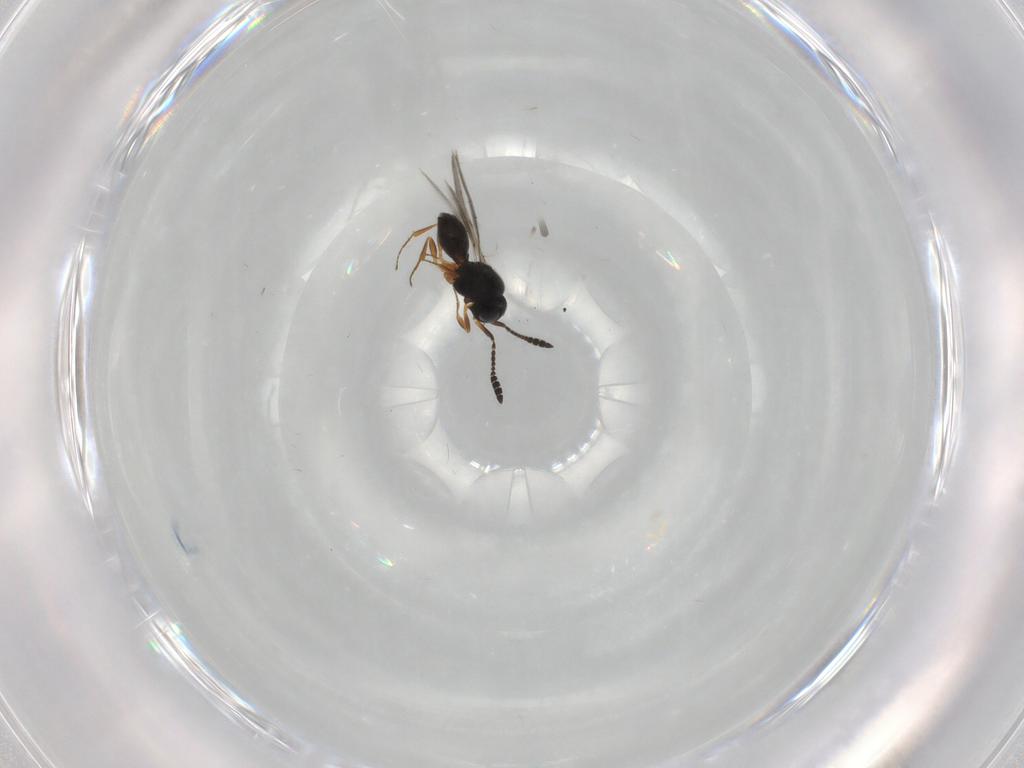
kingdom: Animalia
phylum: Arthropoda
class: Insecta
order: Hymenoptera
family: Scelionidae
